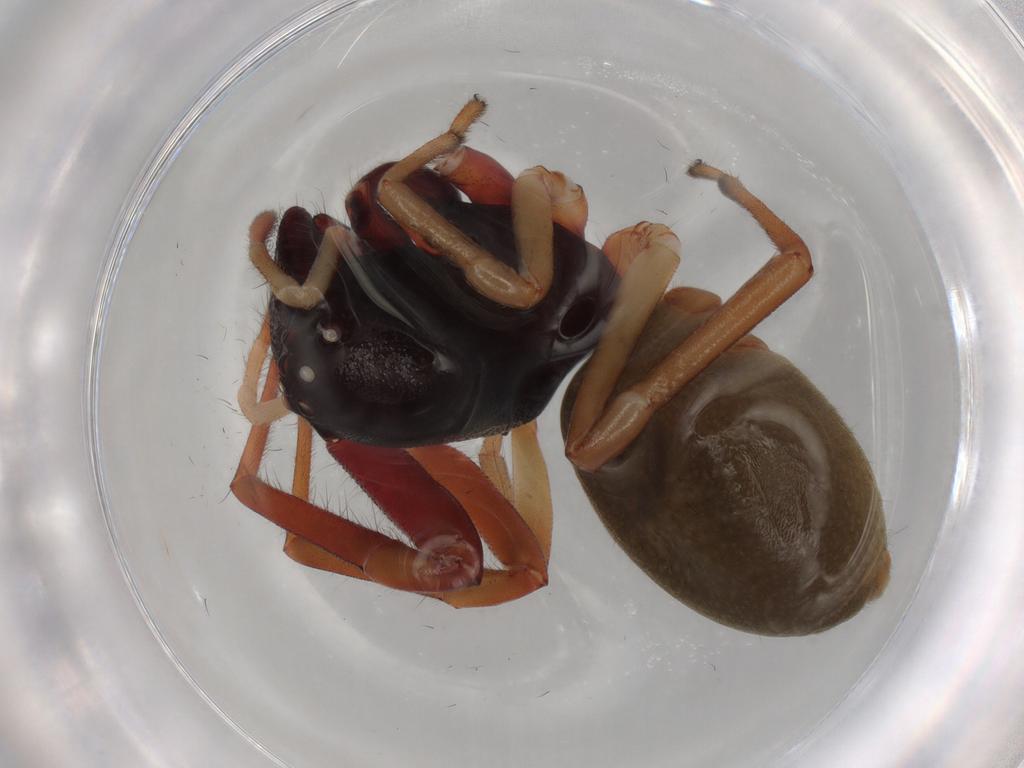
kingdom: Animalia
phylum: Arthropoda
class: Arachnida
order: Araneae
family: Trachelidae
